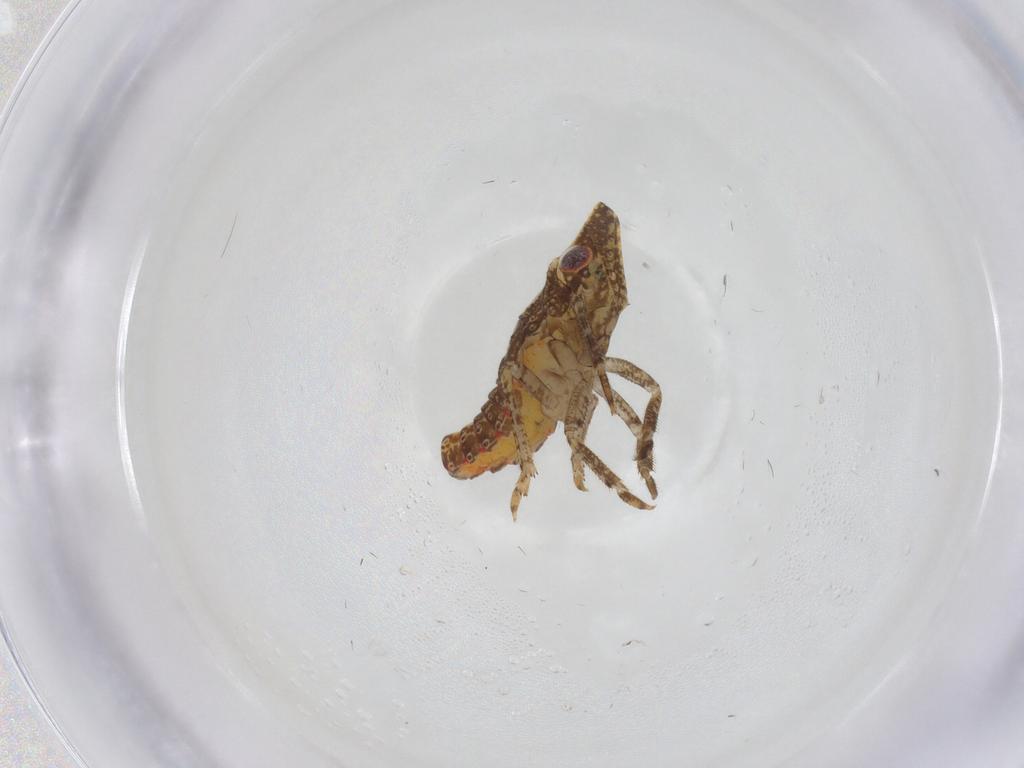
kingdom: Animalia
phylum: Arthropoda
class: Insecta
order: Hemiptera
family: Fulgoroidea_incertae_sedis
